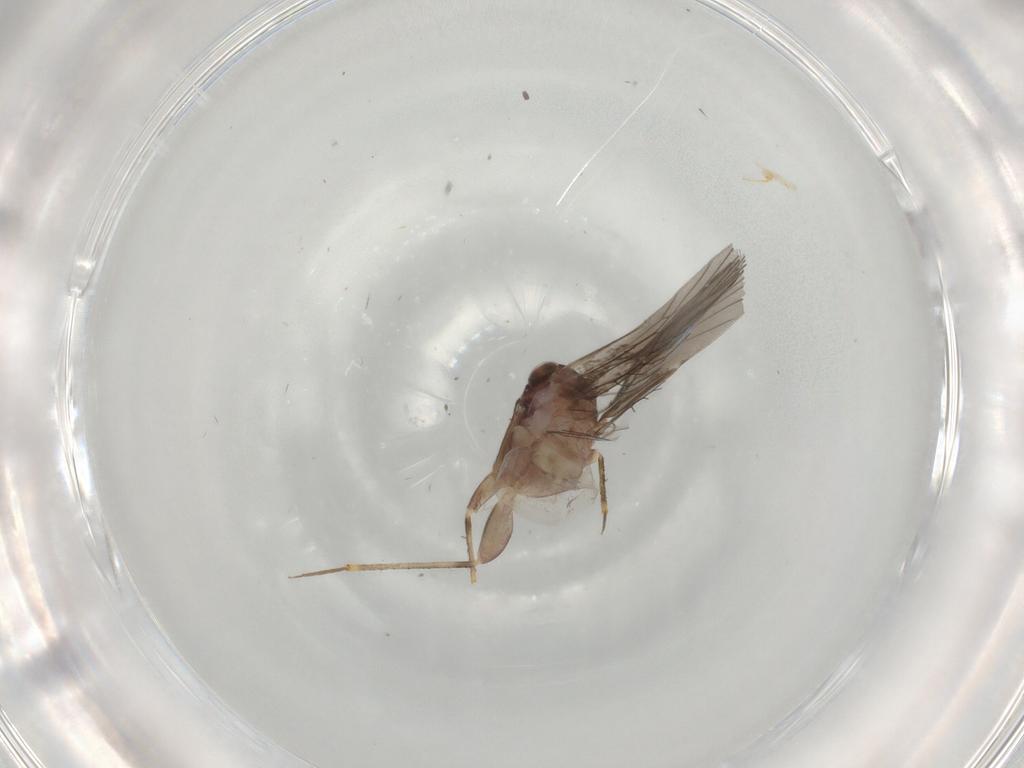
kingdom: Animalia
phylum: Arthropoda
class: Insecta
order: Psocodea
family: Lepidopsocidae
